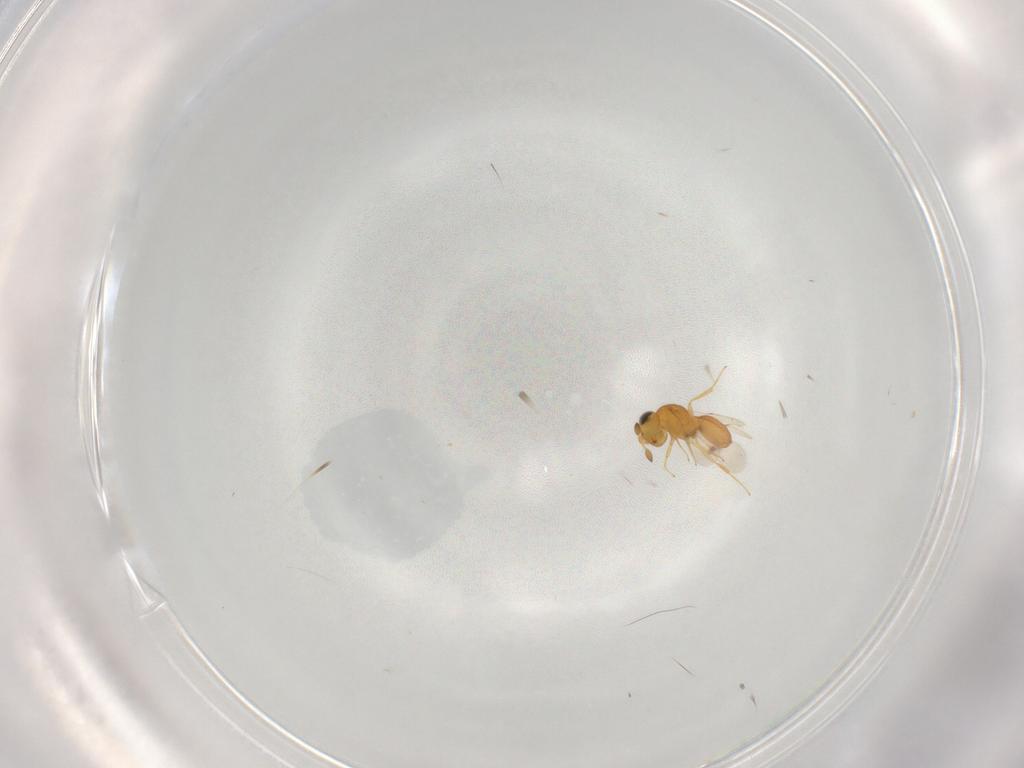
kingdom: Animalia
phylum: Arthropoda
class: Insecta
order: Hymenoptera
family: Scelionidae
